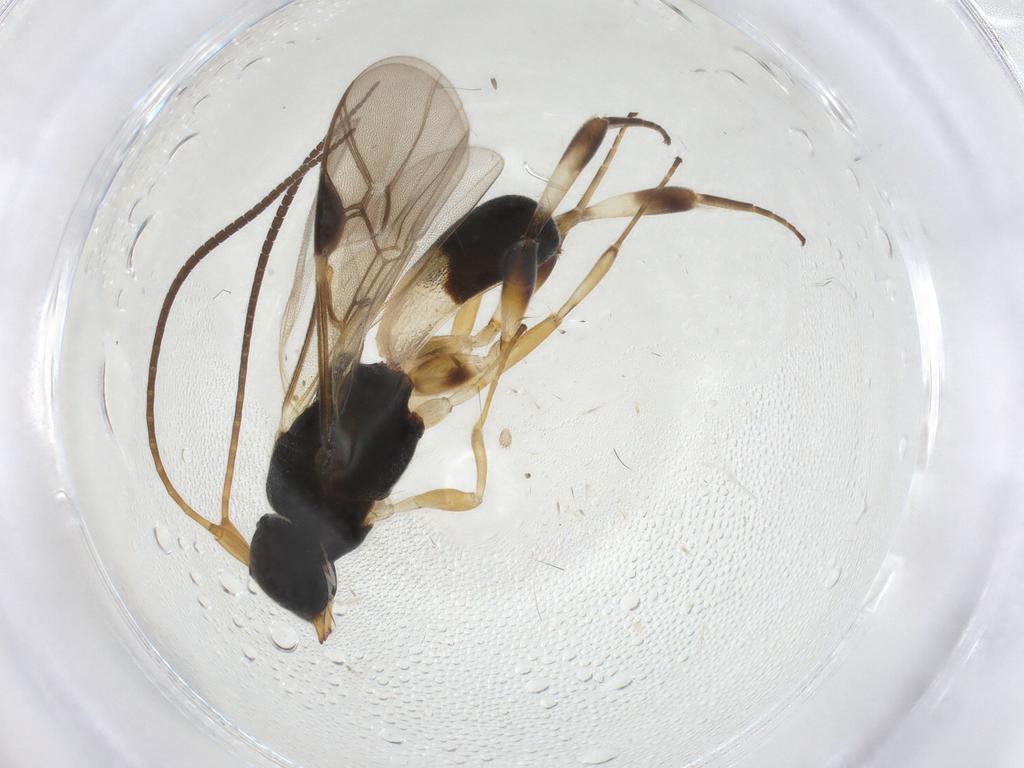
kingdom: Animalia
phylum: Arthropoda
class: Insecta
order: Hymenoptera
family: Braconidae
